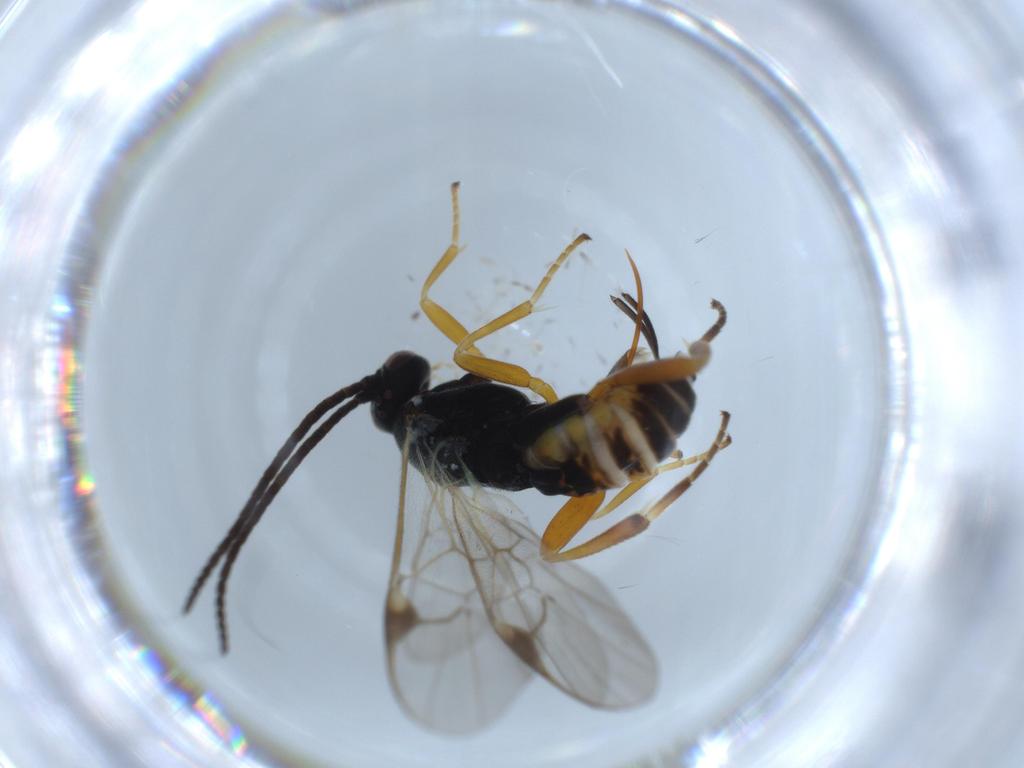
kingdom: Animalia
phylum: Arthropoda
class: Insecta
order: Hymenoptera
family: Braconidae
